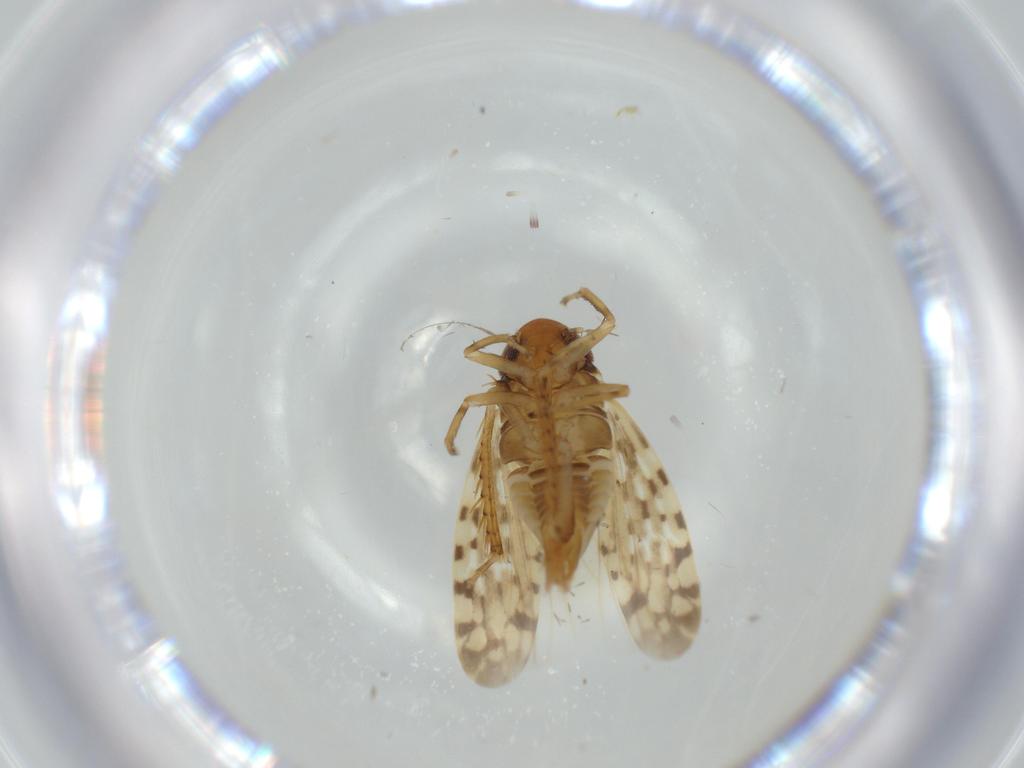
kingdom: Animalia
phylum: Arthropoda
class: Insecta
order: Hemiptera
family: Cicadellidae
